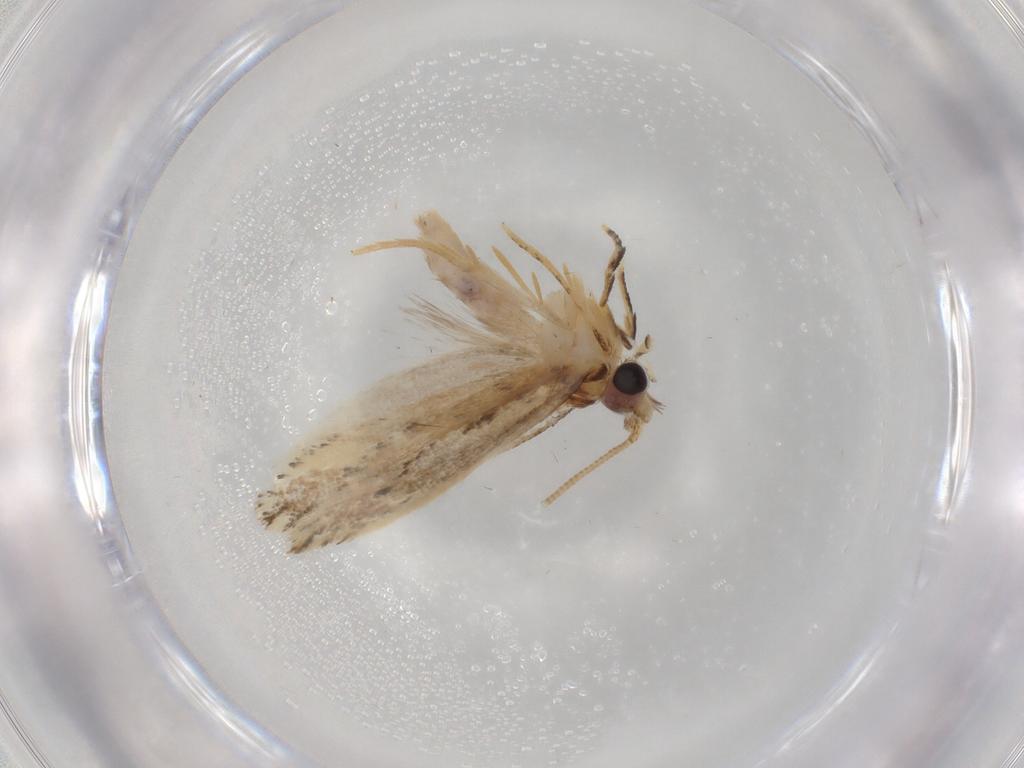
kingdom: Animalia
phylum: Arthropoda
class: Insecta
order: Lepidoptera
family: Nepticulidae
